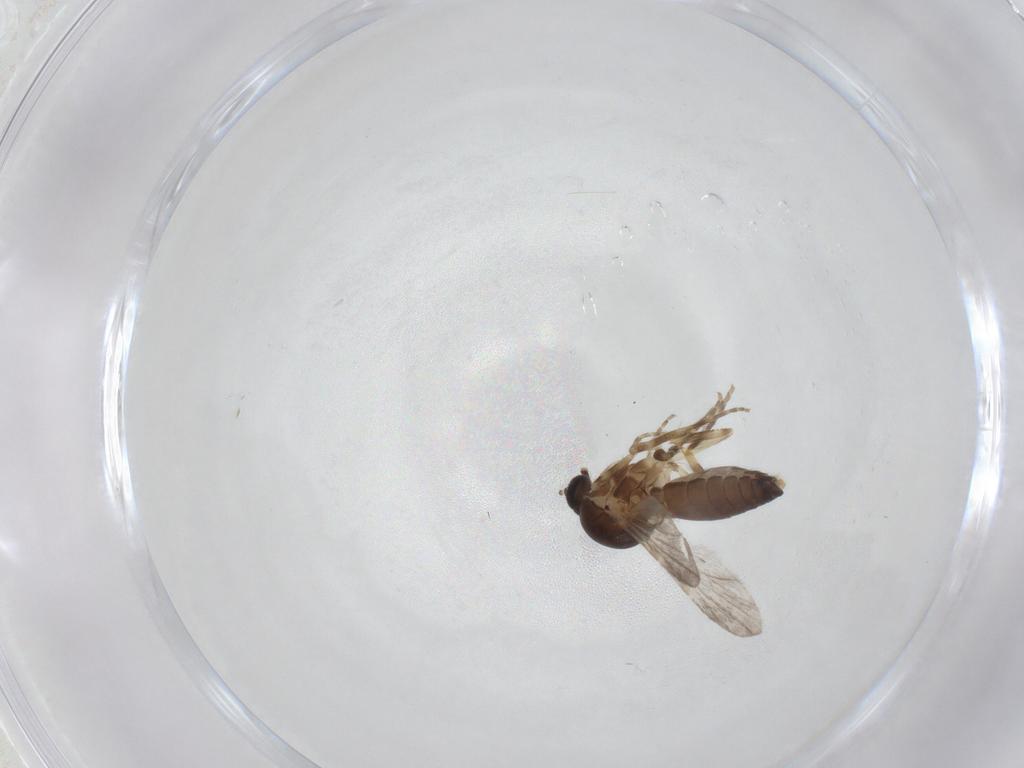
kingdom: Animalia
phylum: Arthropoda
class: Insecta
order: Diptera
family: Ceratopogonidae
